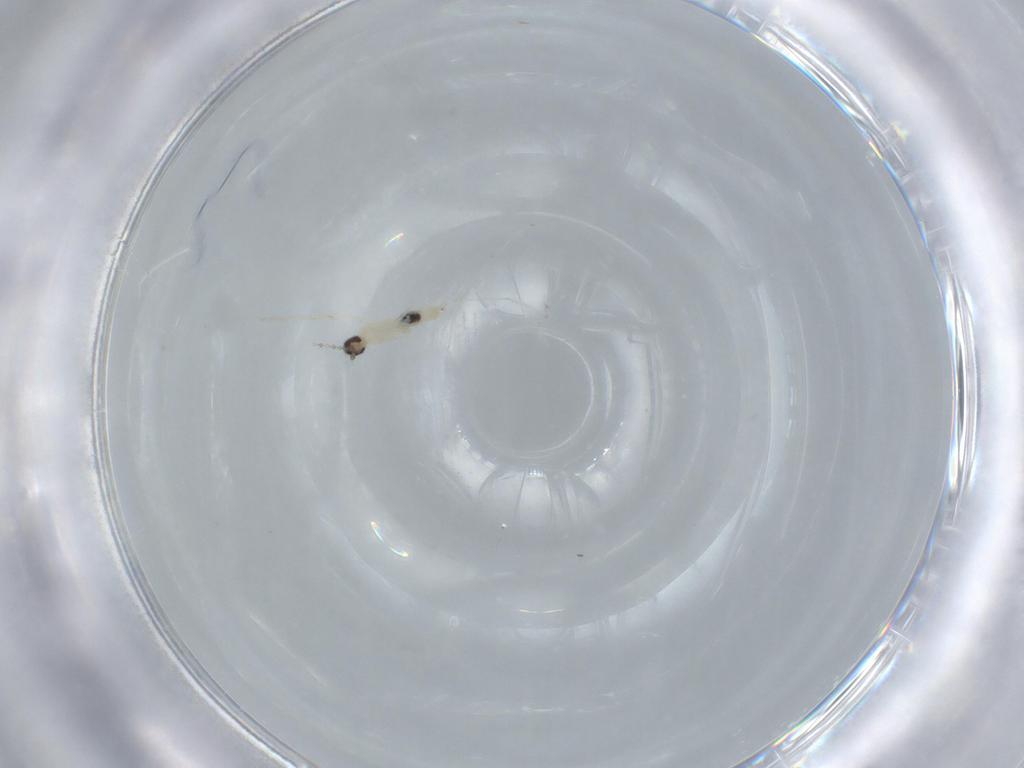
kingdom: Animalia
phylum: Arthropoda
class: Insecta
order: Diptera
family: Cecidomyiidae
